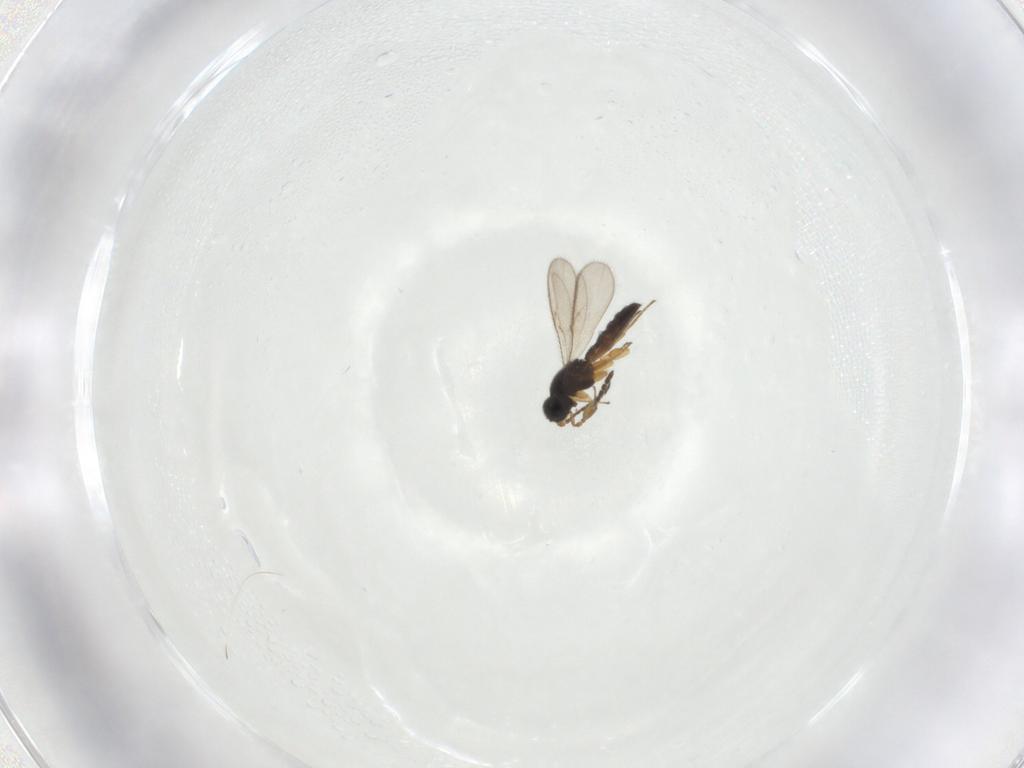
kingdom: Animalia
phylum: Arthropoda
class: Insecta
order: Hymenoptera
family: Scelionidae
